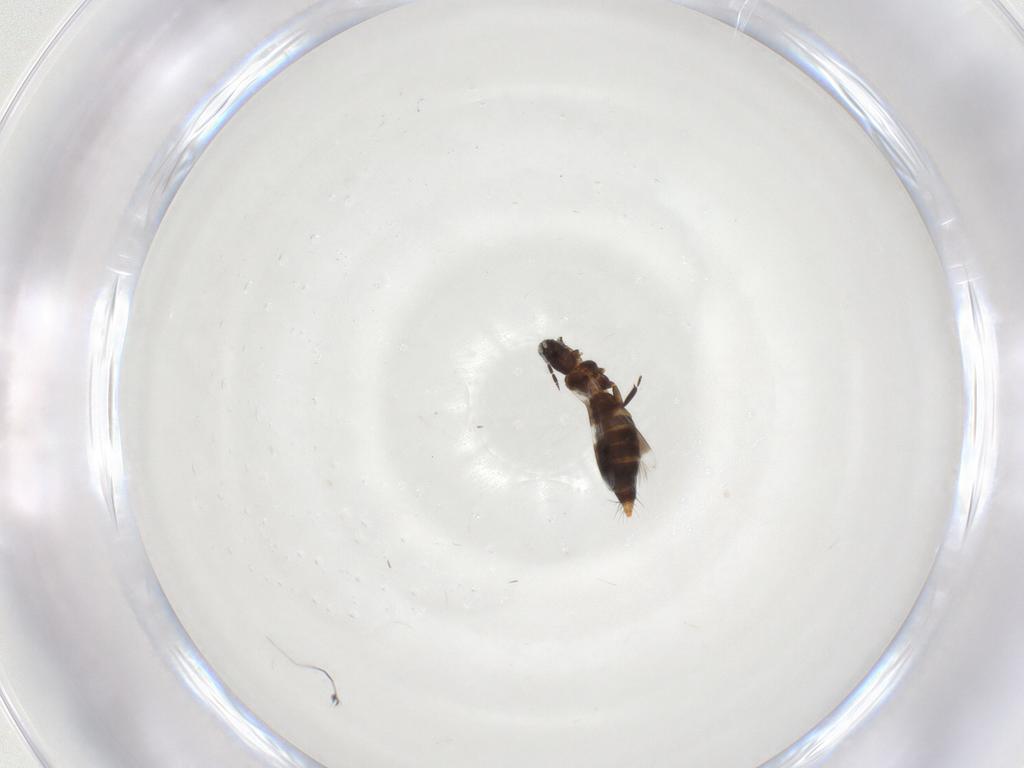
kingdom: Animalia
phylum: Arthropoda
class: Insecta
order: Thysanoptera
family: Aeolothripidae
